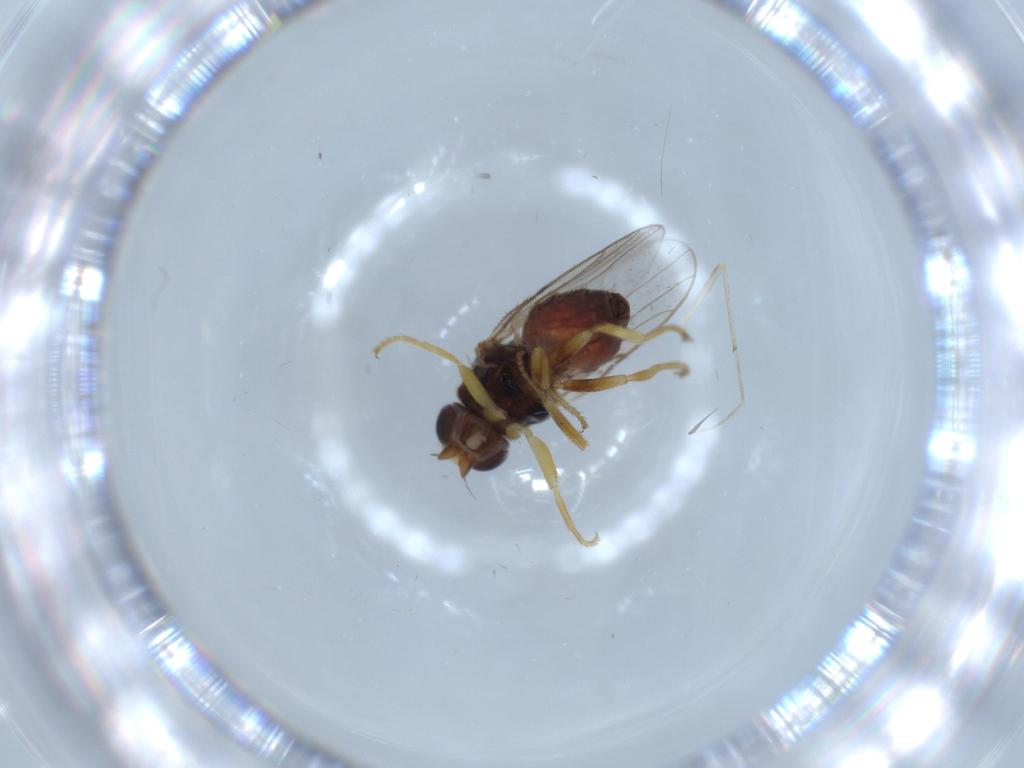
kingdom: Animalia
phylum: Arthropoda
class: Insecta
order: Diptera
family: Chloropidae
